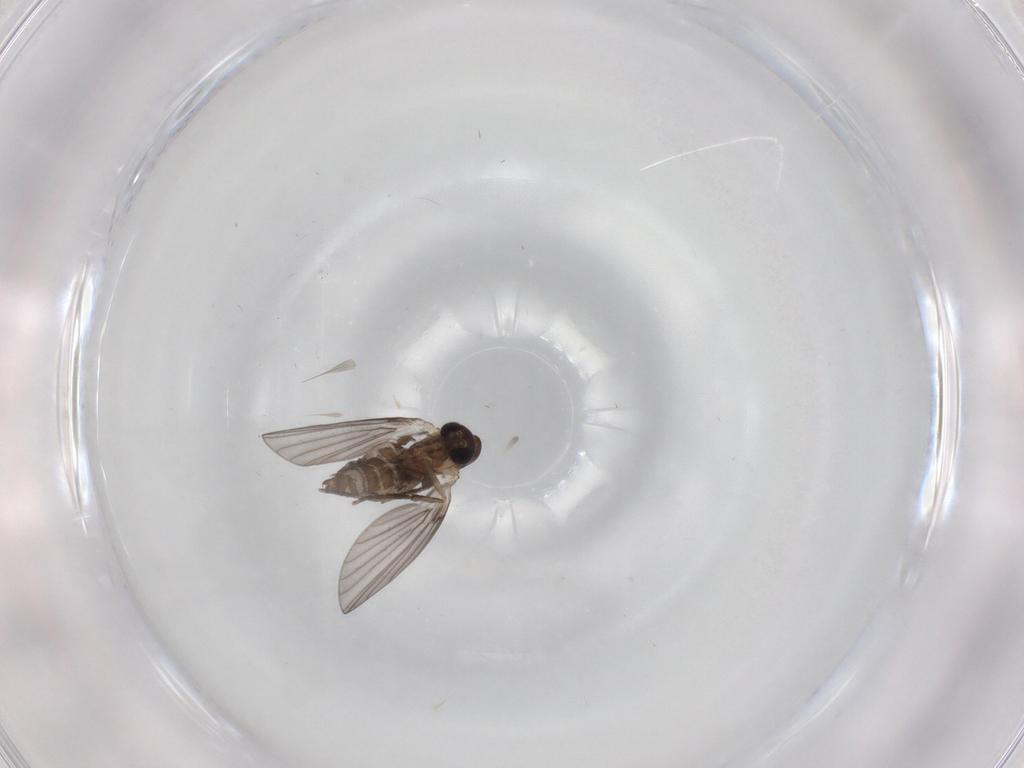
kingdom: Animalia
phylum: Arthropoda
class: Insecta
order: Diptera
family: Psychodidae
